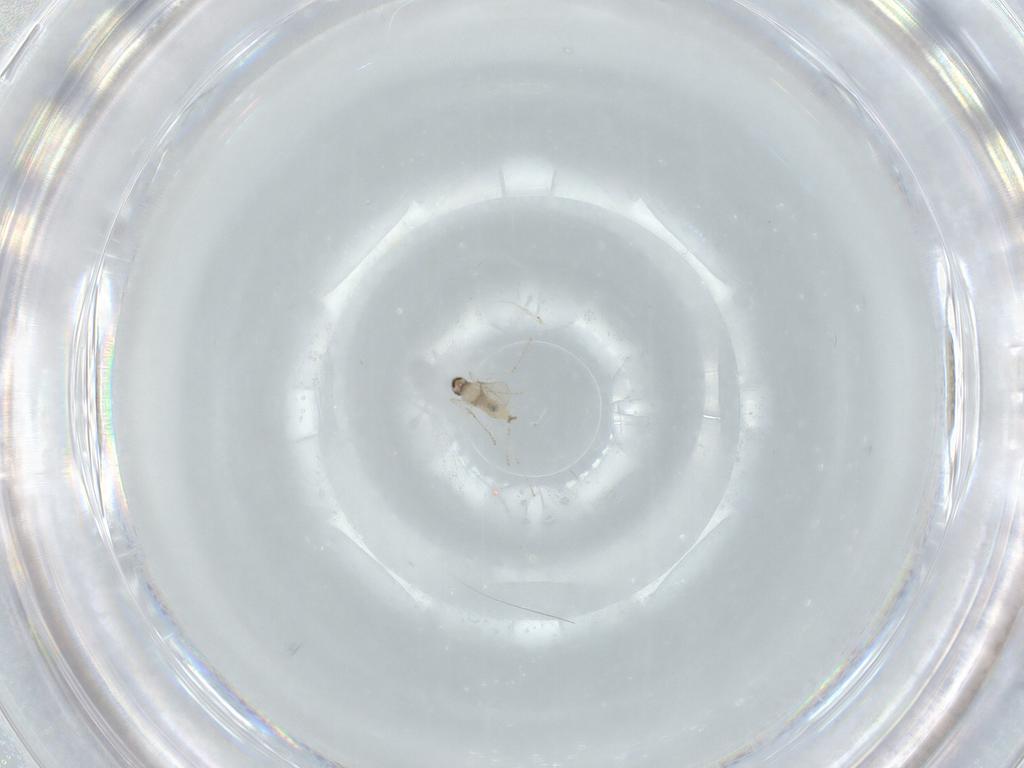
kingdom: Animalia
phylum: Arthropoda
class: Insecta
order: Diptera
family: Cecidomyiidae
